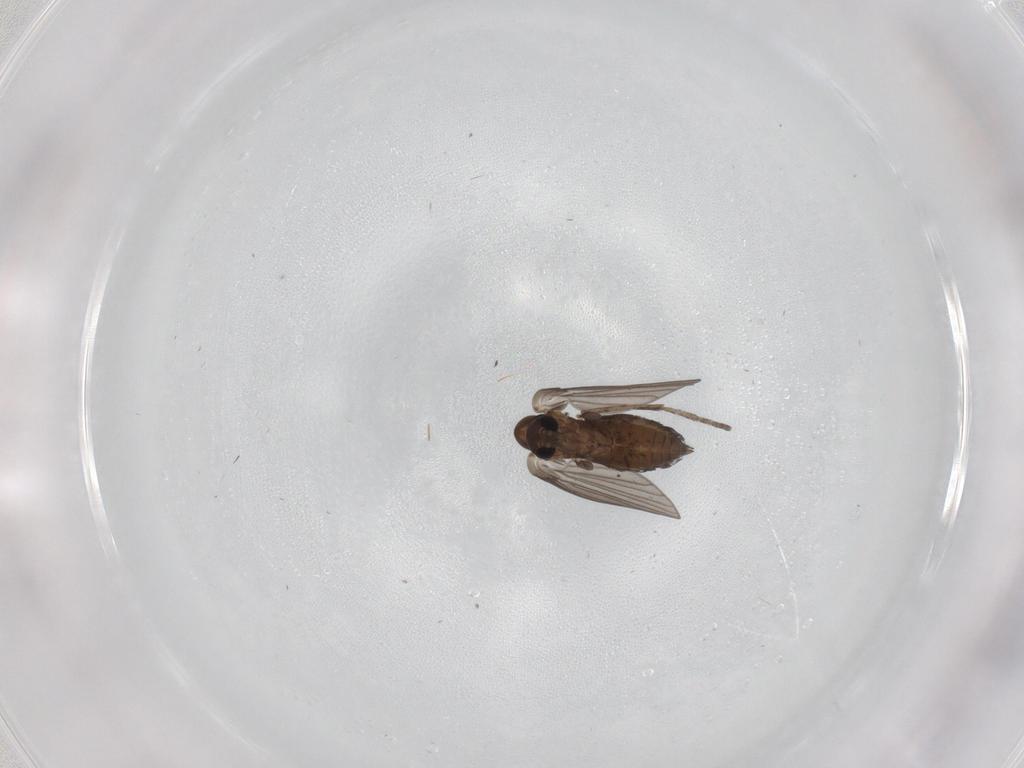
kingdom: Animalia
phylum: Arthropoda
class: Insecta
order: Diptera
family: Psychodidae
